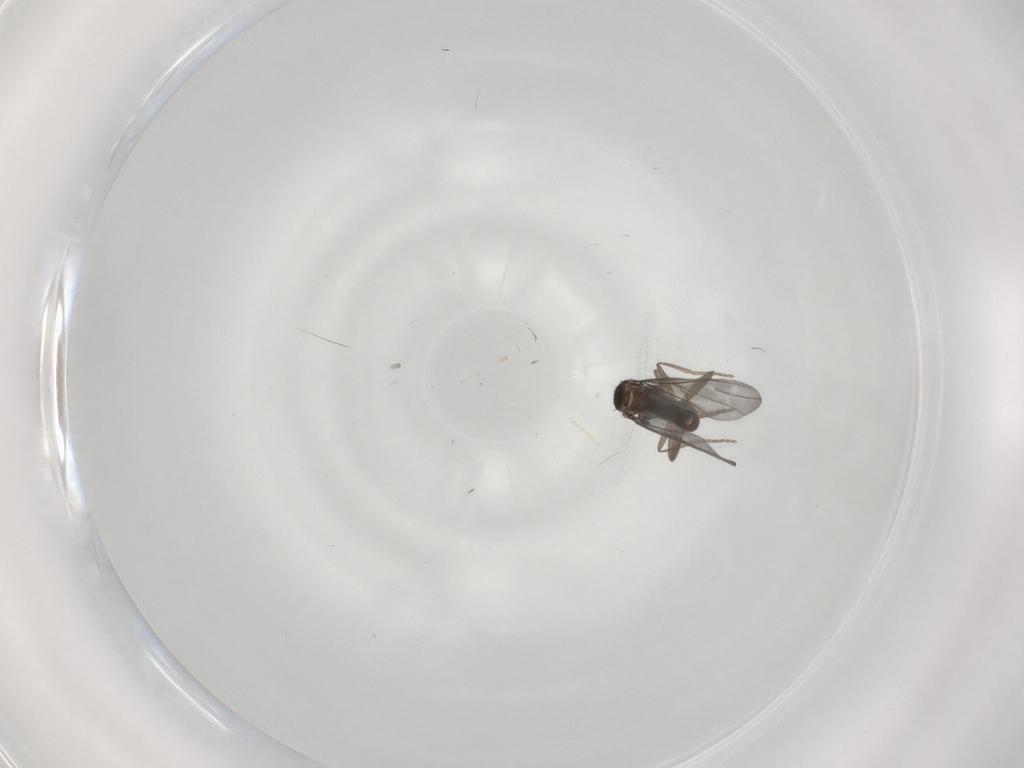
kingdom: Animalia
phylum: Arthropoda
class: Insecta
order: Diptera
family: Phoridae
